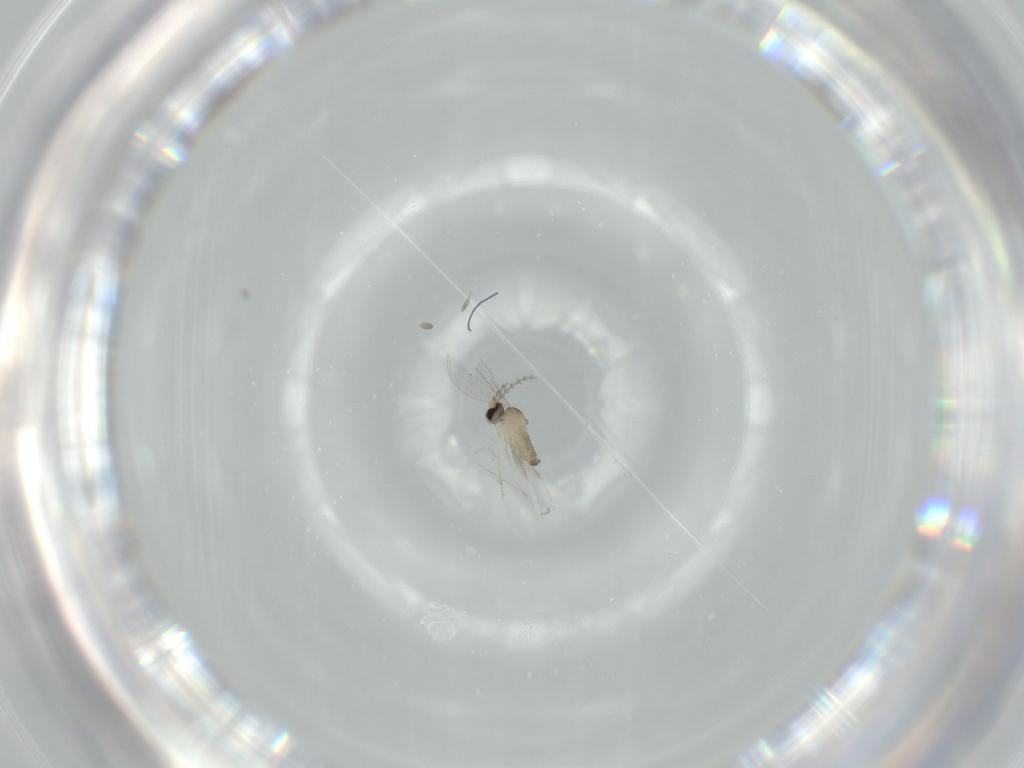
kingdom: Animalia
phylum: Arthropoda
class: Insecta
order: Diptera
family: Cecidomyiidae
